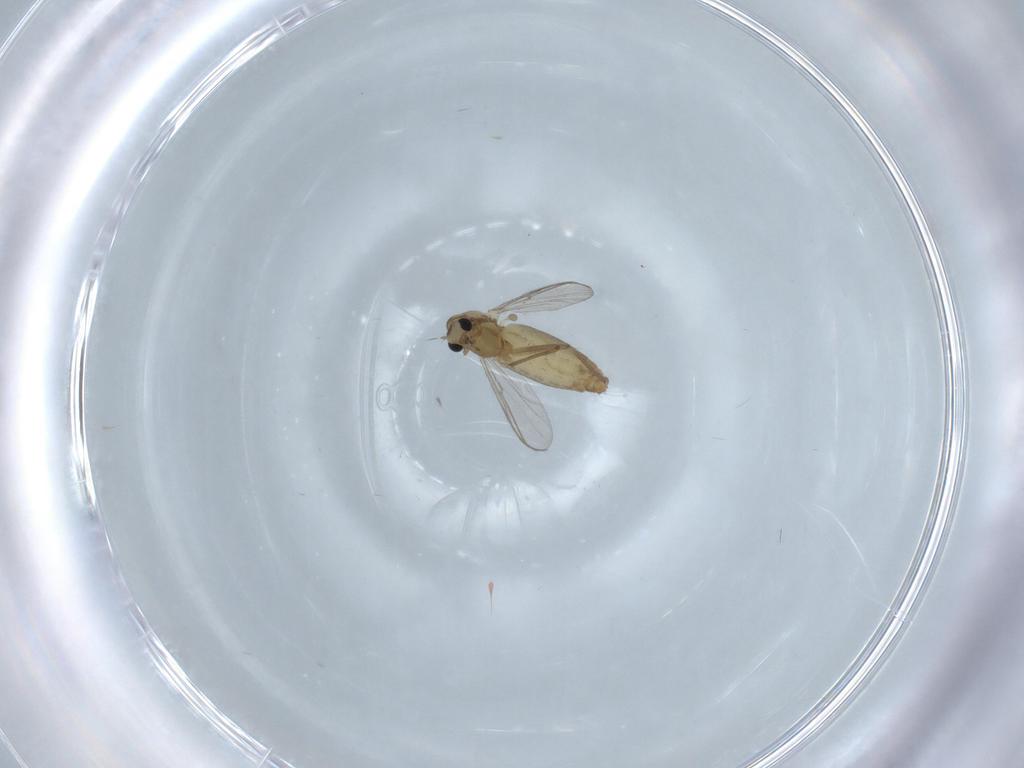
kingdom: Animalia
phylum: Arthropoda
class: Insecta
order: Diptera
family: Chironomidae
